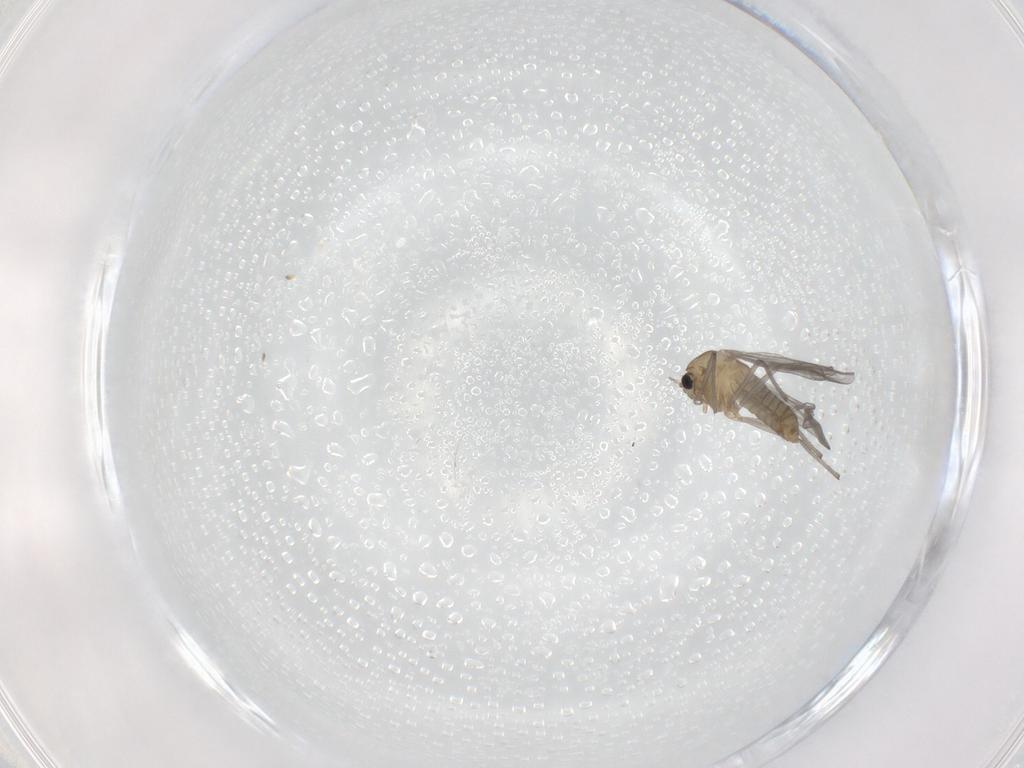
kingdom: Animalia
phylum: Arthropoda
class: Insecta
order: Diptera
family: Chironomidae
